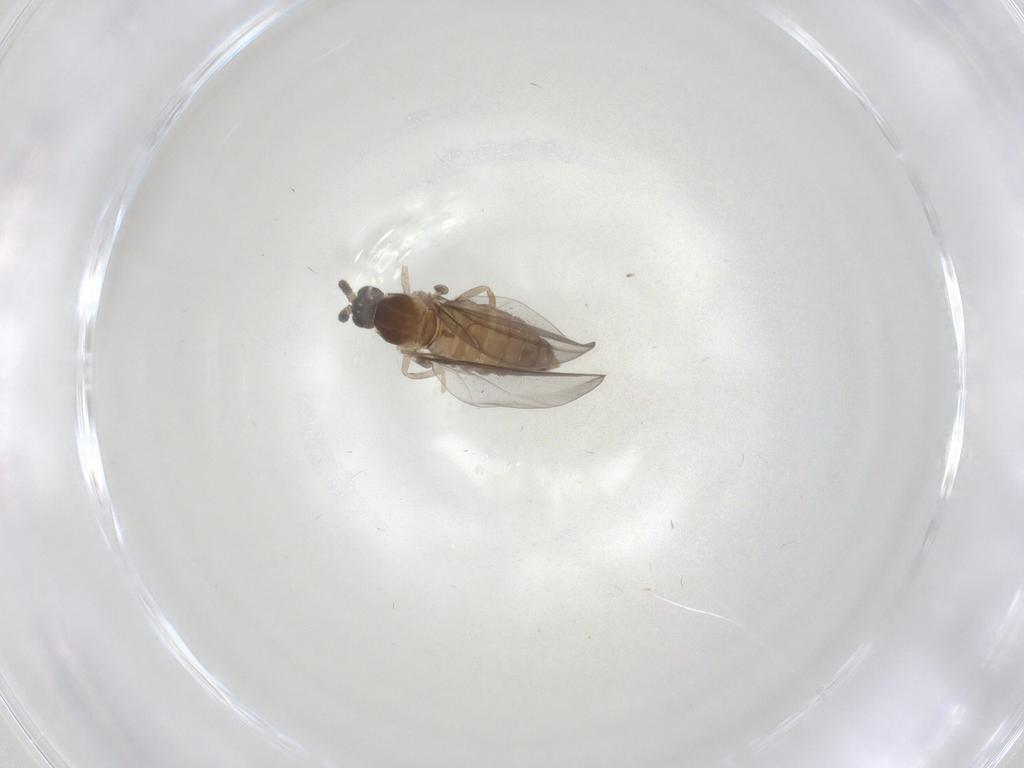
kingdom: Animalia
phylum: Arthropoda
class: Insecta
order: Diptera
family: Cecidomyiidae
